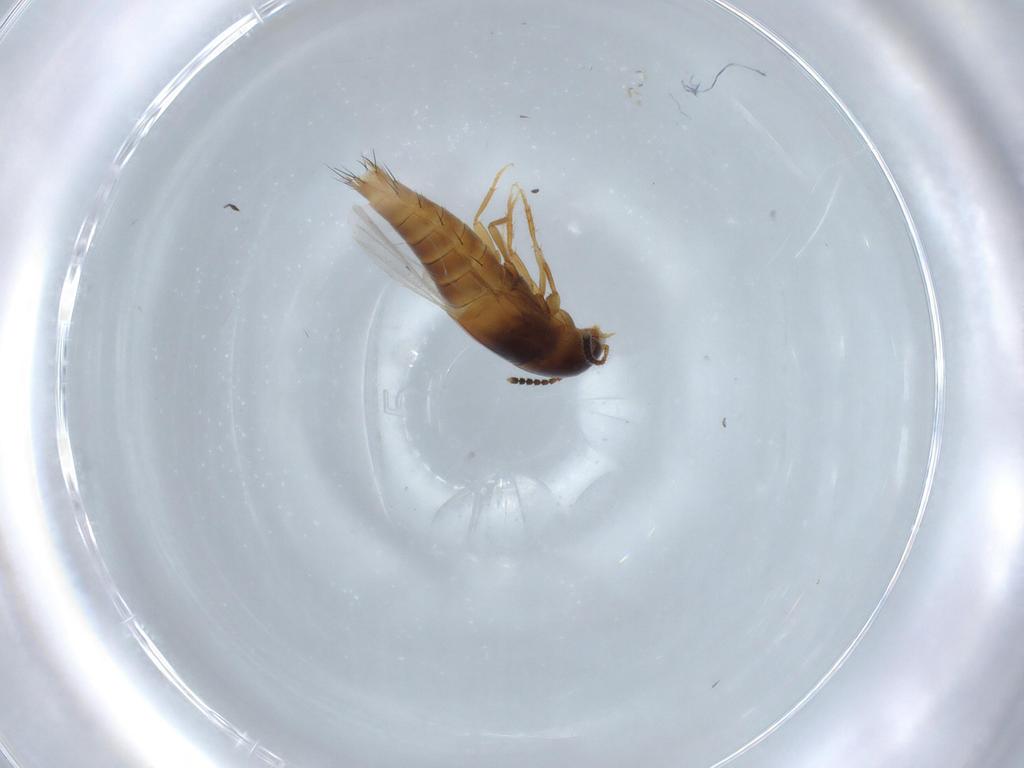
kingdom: Animalia
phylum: Arthropoda
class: Insecta
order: Coleoptera
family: Staphylinidae
